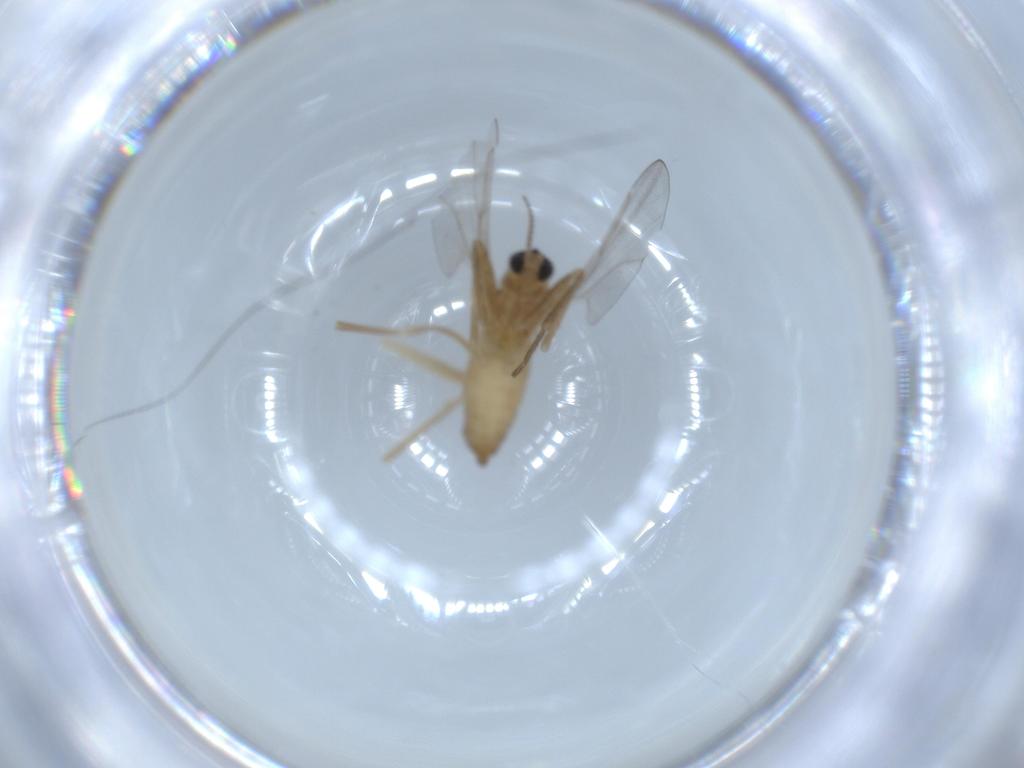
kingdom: Animalia
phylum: Arthropoda
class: Insecta
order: Diptera
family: Cecidomyiidae
